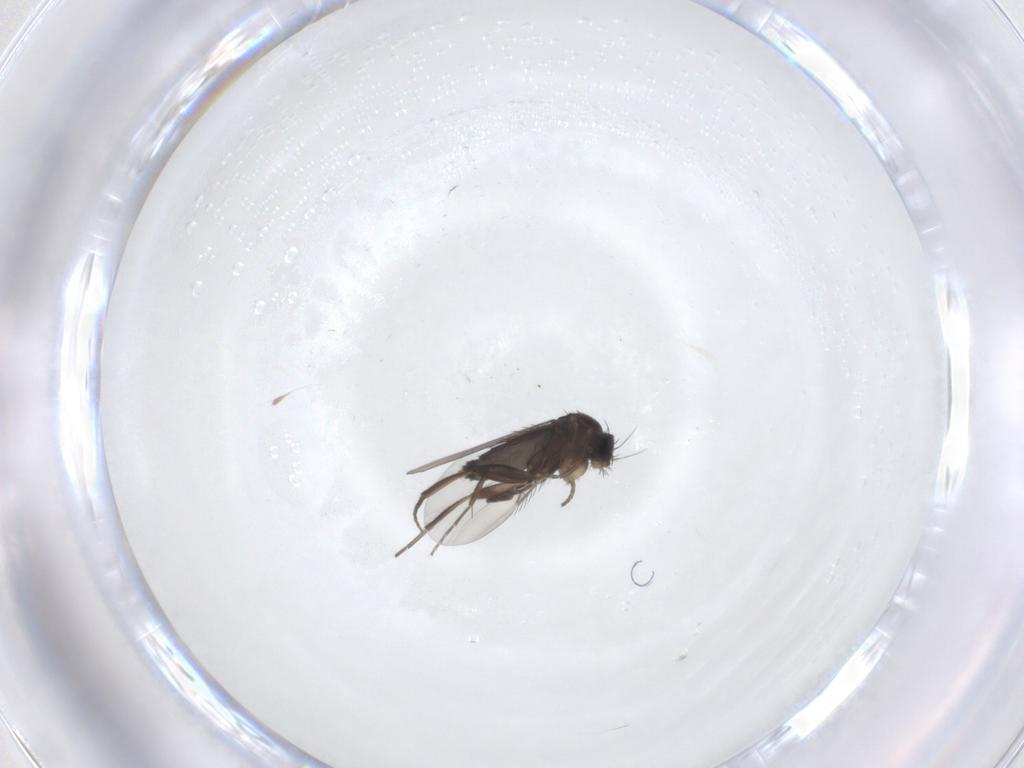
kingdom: Animalia
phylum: Arthropoda
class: Insecta
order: Diptera
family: Phoridae
